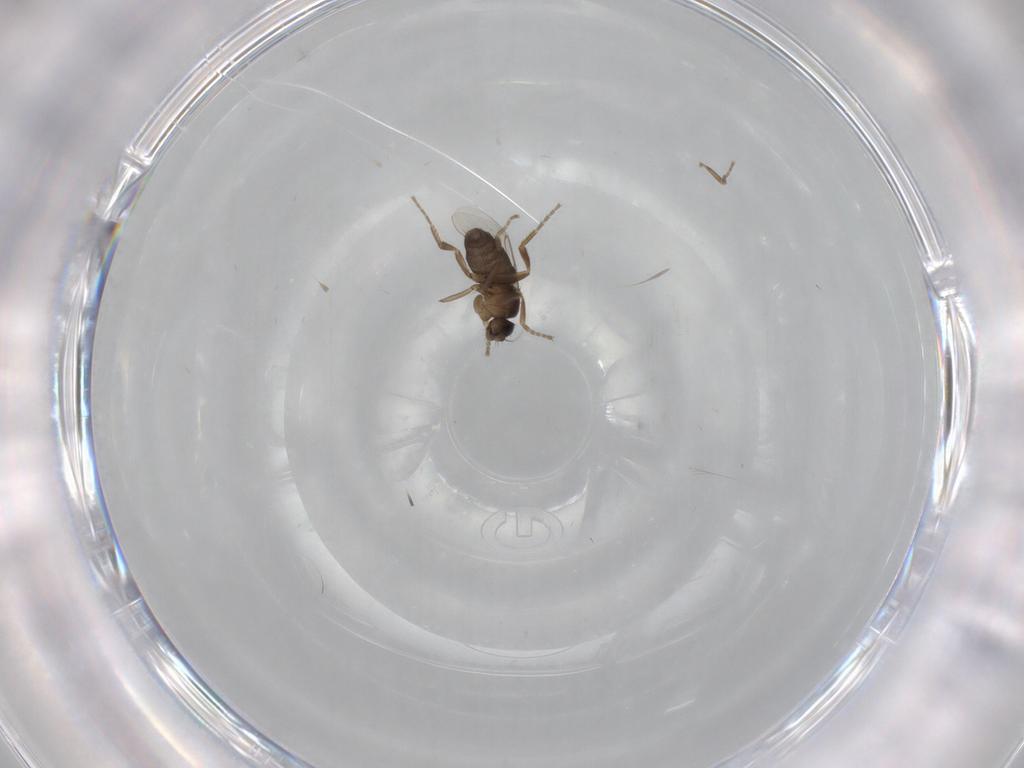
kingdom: Animalia
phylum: Arthropoda
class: Insecta
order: Diptera
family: Phoridae
